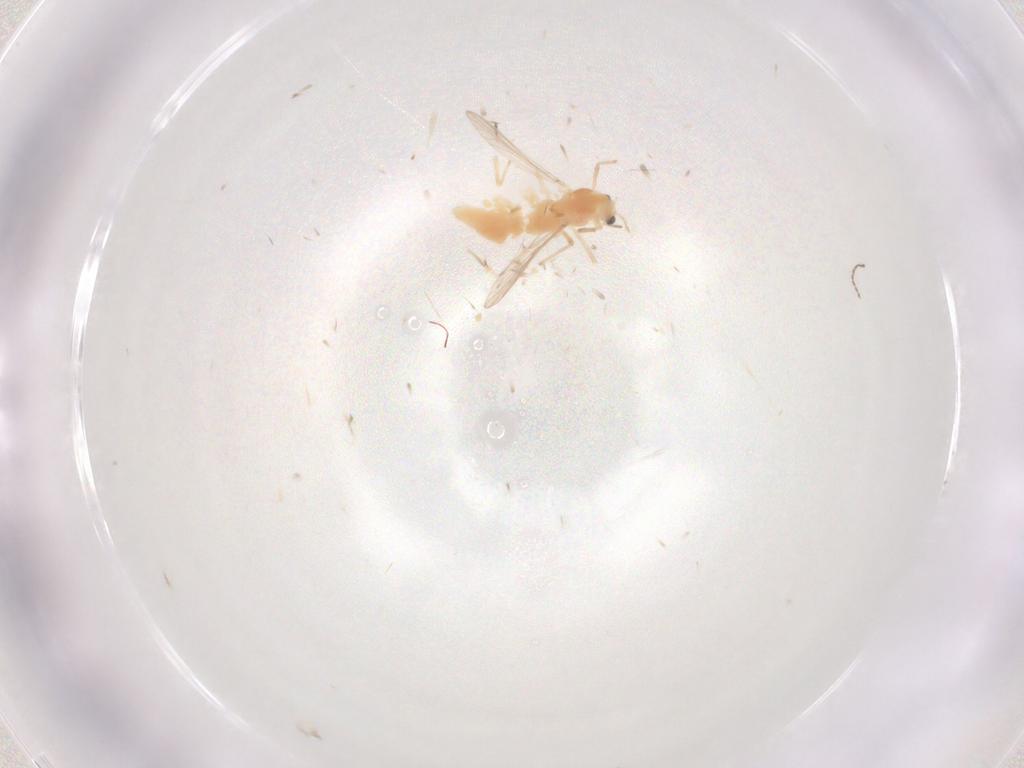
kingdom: Animalia
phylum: Arthropoda
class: Insecta
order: Diptera
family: Chironomidae
